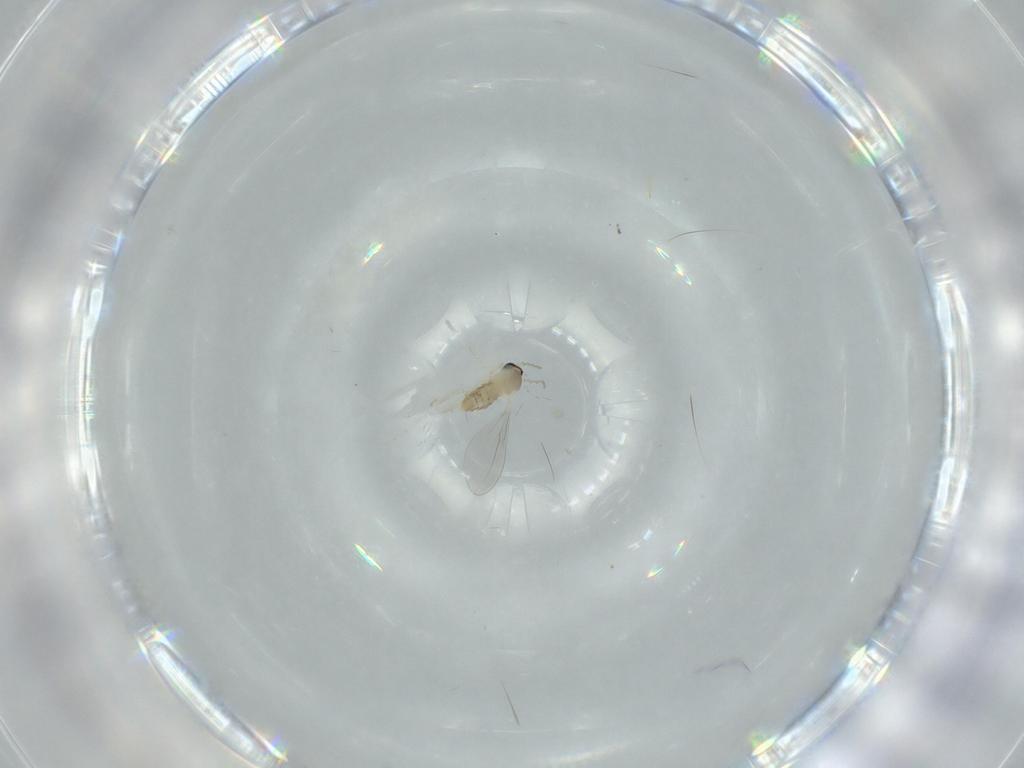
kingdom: Animalia
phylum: Arthropoda
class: Insecta
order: Diptera
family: Cecidomyiidae
